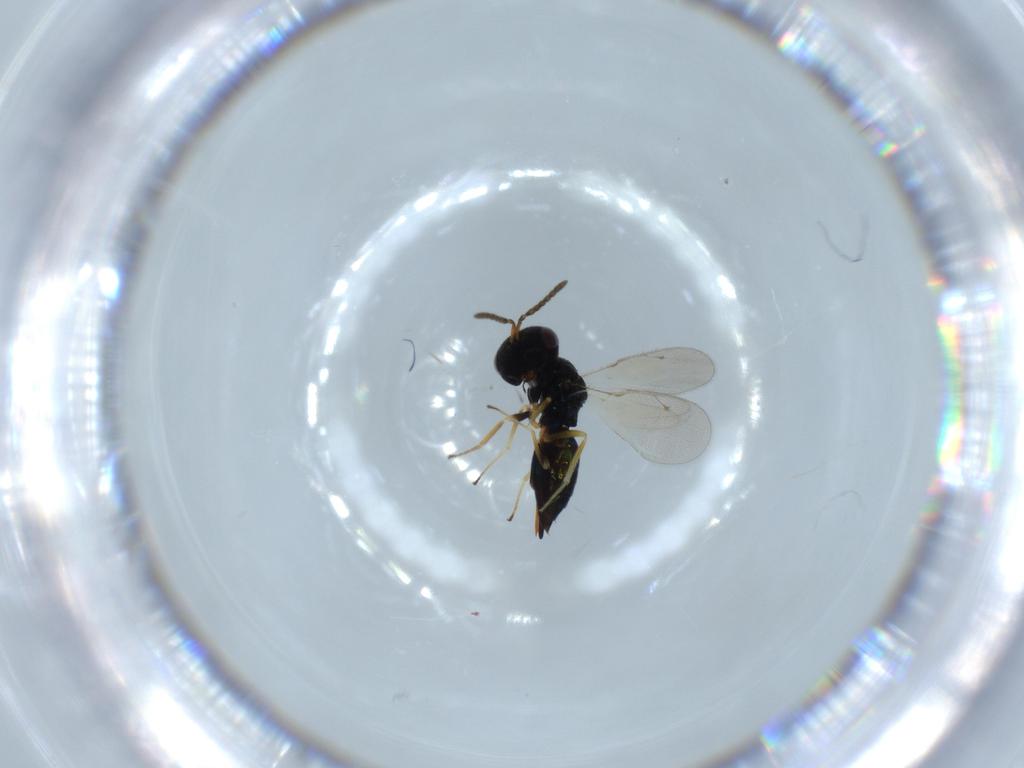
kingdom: Animalia
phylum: Arthropoda
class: Insecta
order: Hymenoptera
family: Pteromalidae
